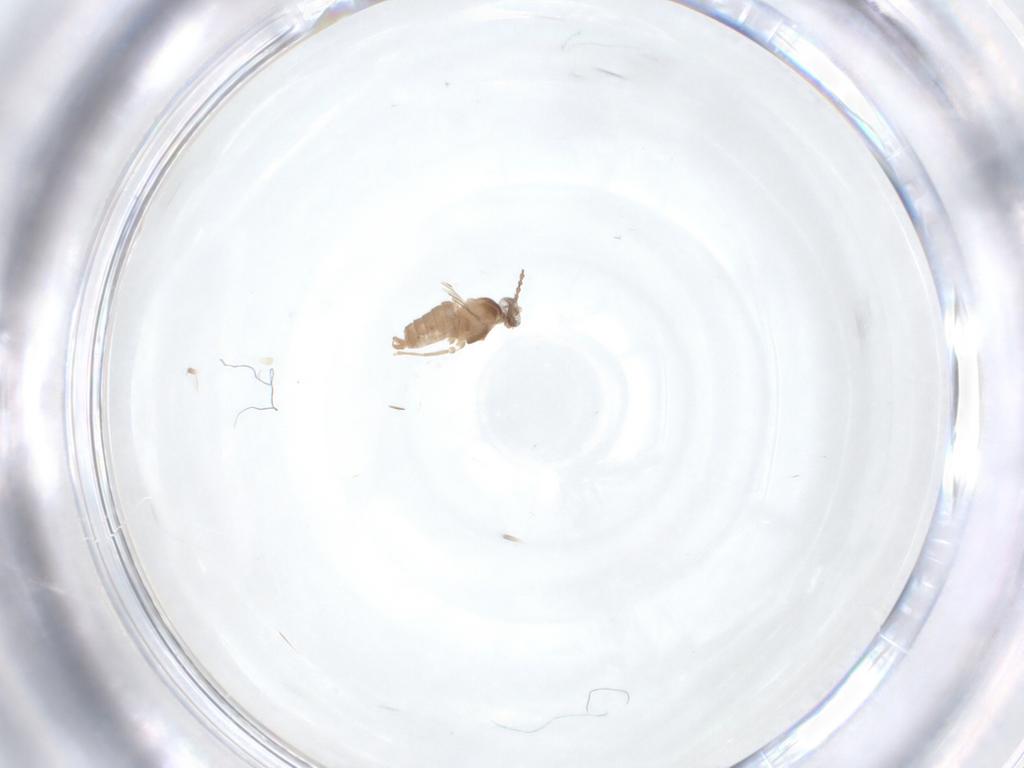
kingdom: Animalia
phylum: Arthropoda
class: Insecta
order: Diptera
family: Cecidomyiidae
